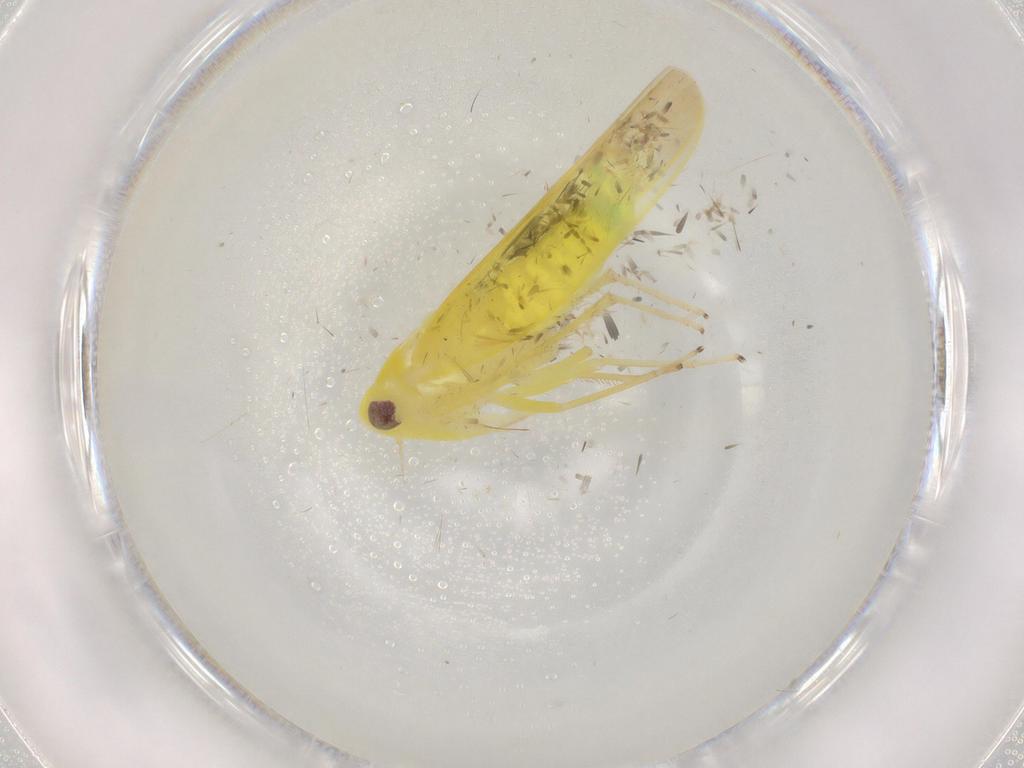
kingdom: Animalia
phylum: Arthropoda
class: Insecta
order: Hemiptera
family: Cicadellidae
